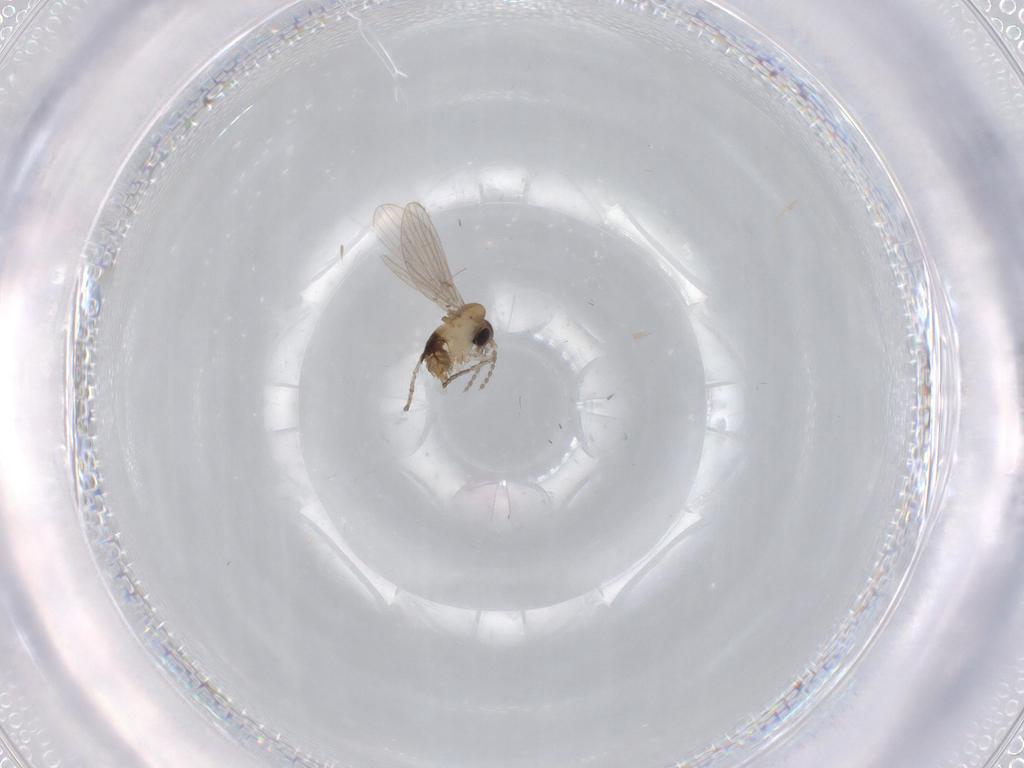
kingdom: Animalia
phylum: Arthropoda
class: Insecta
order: Diptera
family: Psychodidae
